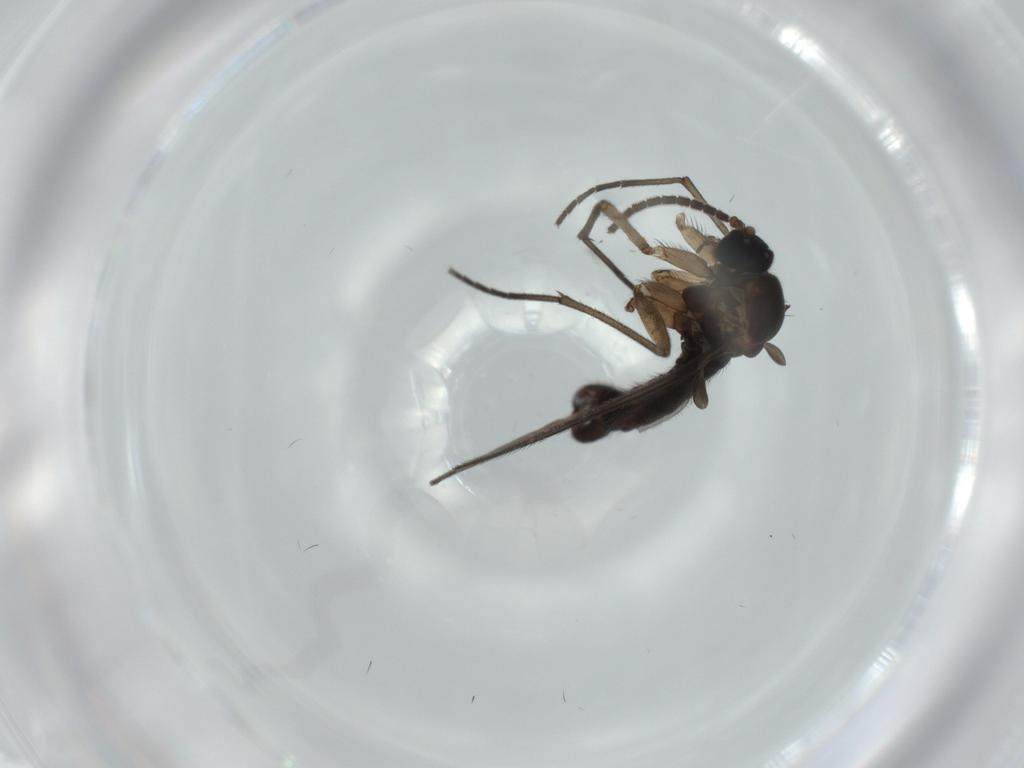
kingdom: Animalia
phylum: Arthropoda
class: Insecta
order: Diptera
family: Sciaridae
